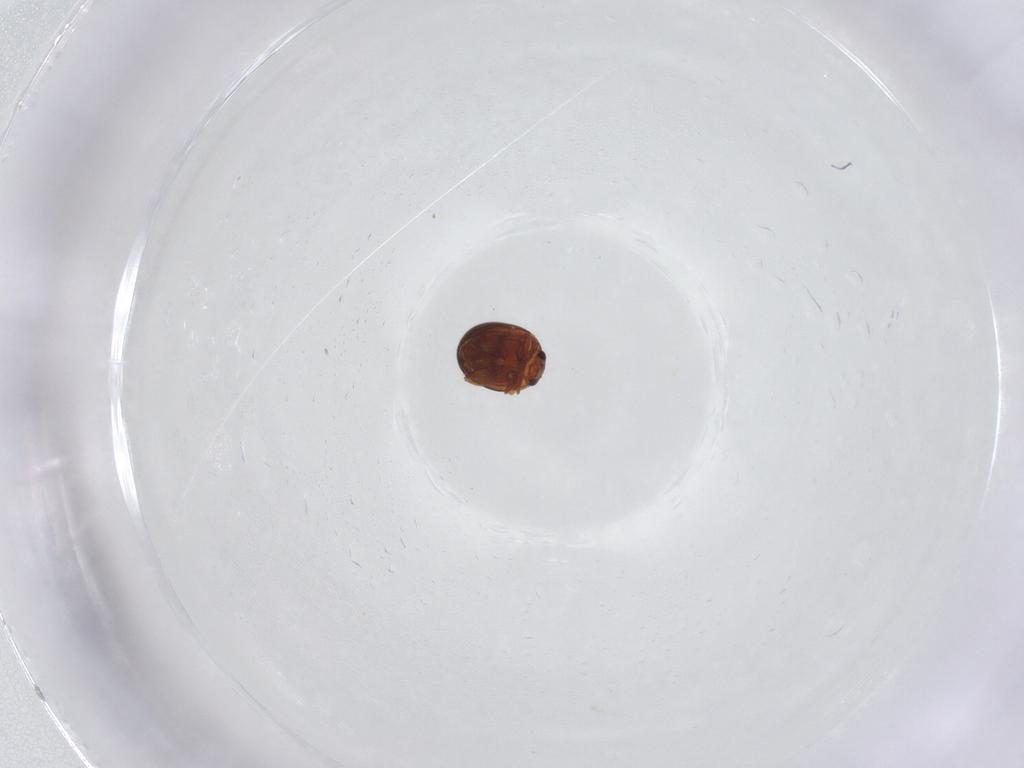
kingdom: Animalia
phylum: Arthropoda
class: Insecta
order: Coleoptera
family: Chrysomelidae
